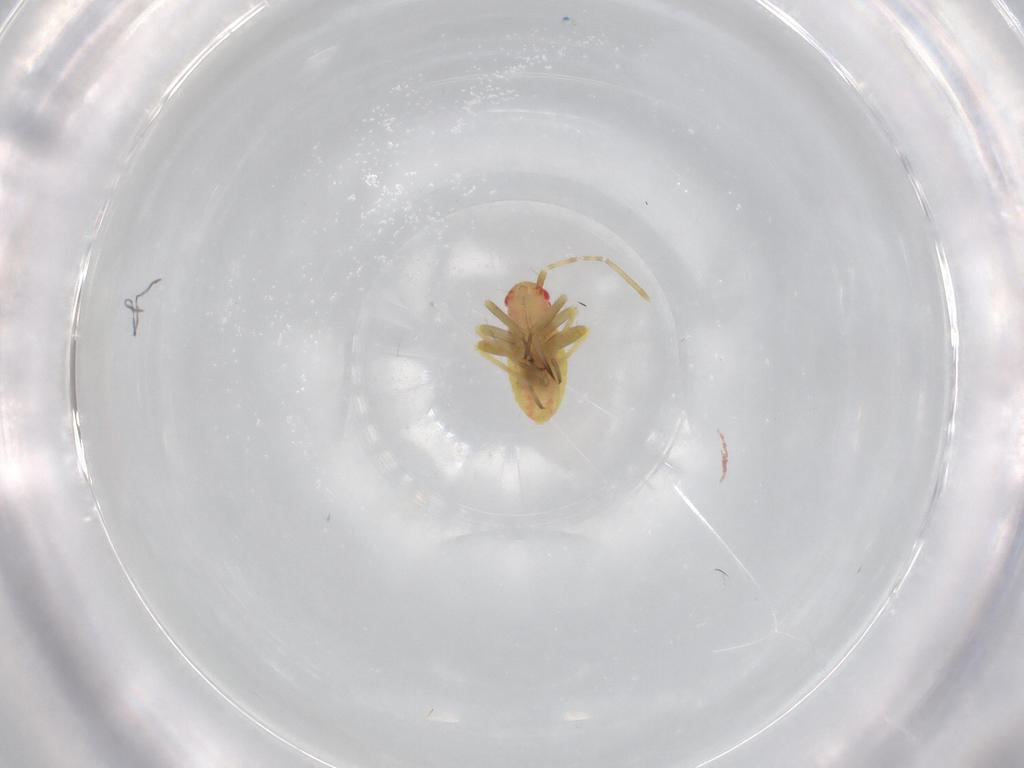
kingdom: Animalia
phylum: Arthropoda
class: Insecta
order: Hemiptera
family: Miridae
